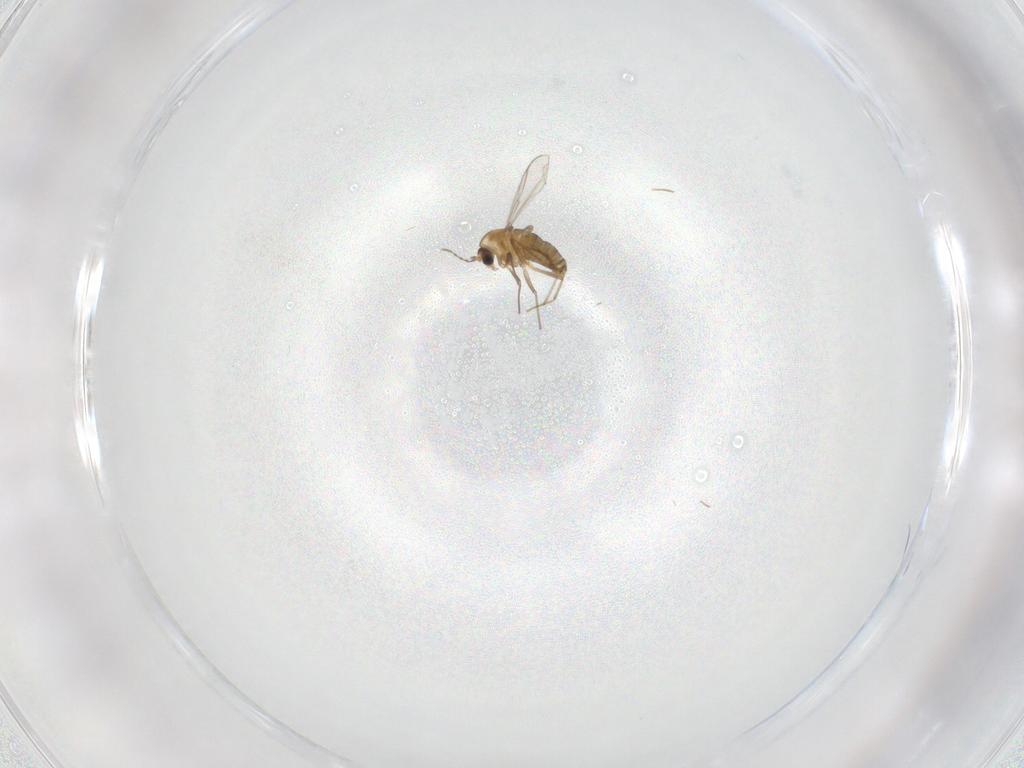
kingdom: Animalia
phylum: Arthropoda
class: Insecta
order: Diptera
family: Chironomidae
